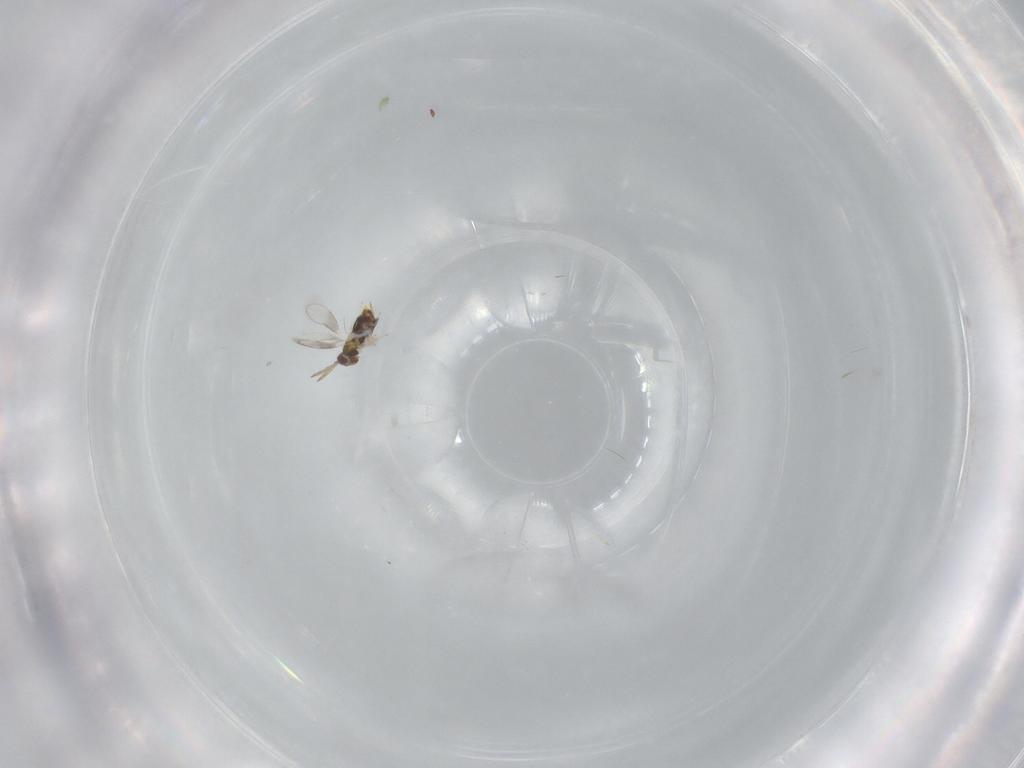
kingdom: Animalia
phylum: Arthropoda
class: Insecta
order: Hymenoptera
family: Aphelinidae
